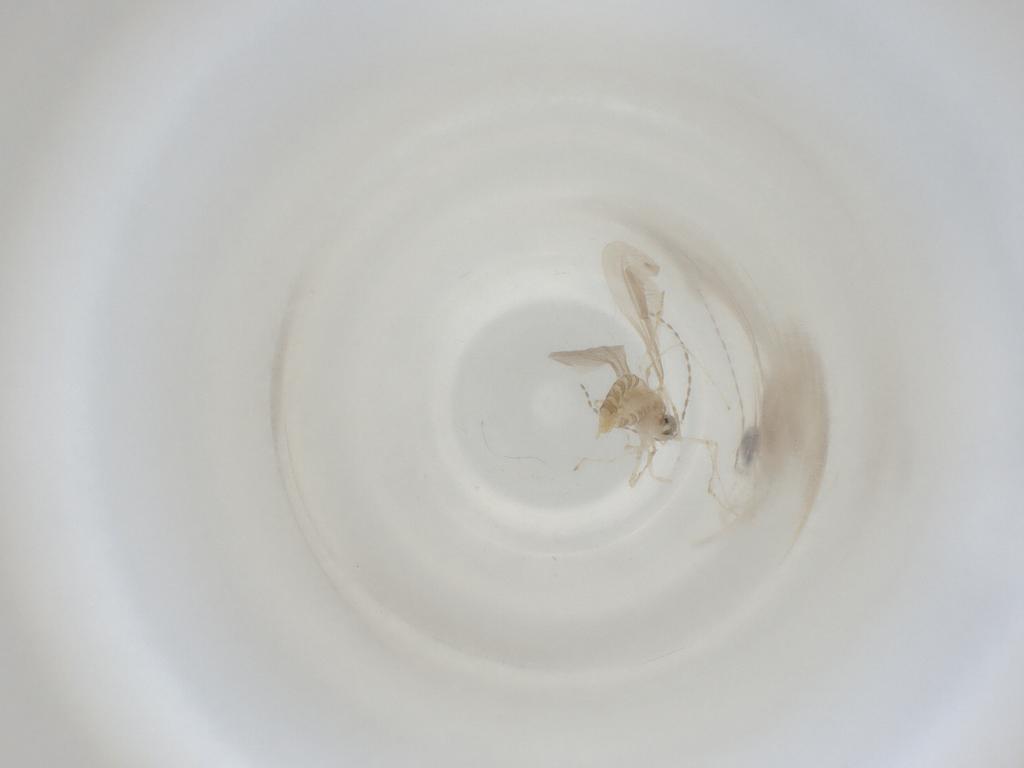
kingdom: Animalia
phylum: Arthropoda
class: Insecta
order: Diptera
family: Cecidomyiidae
